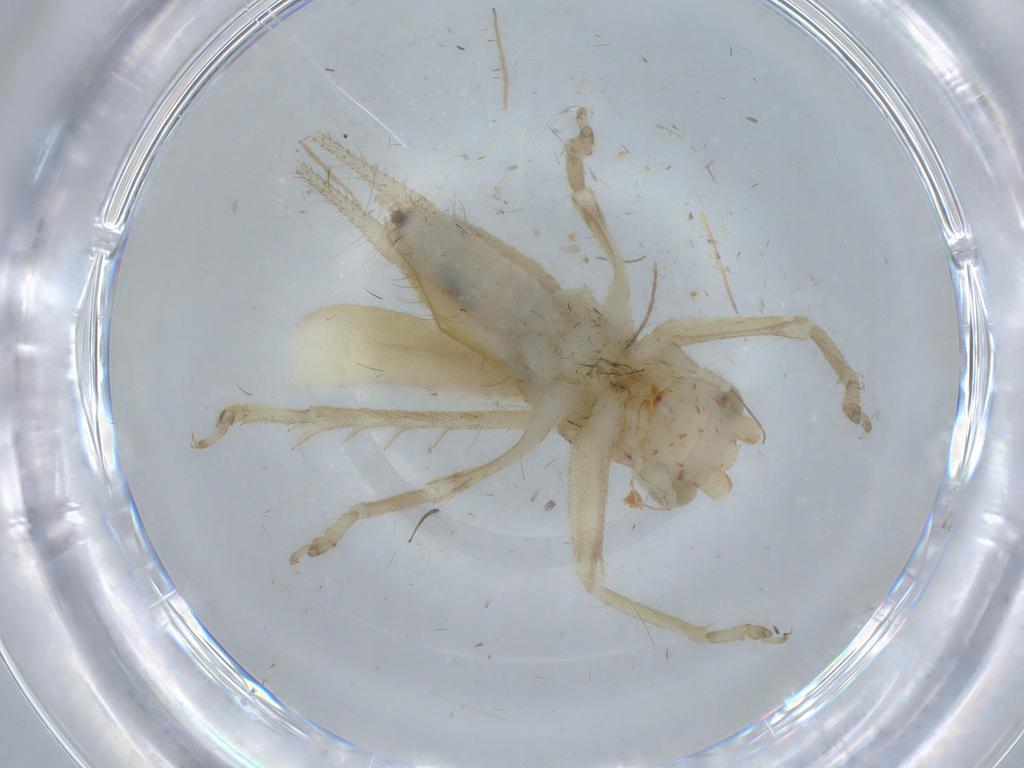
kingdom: Animalia
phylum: Arthropoda
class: Insecta
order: Orthoptera
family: Trigonidiidae
